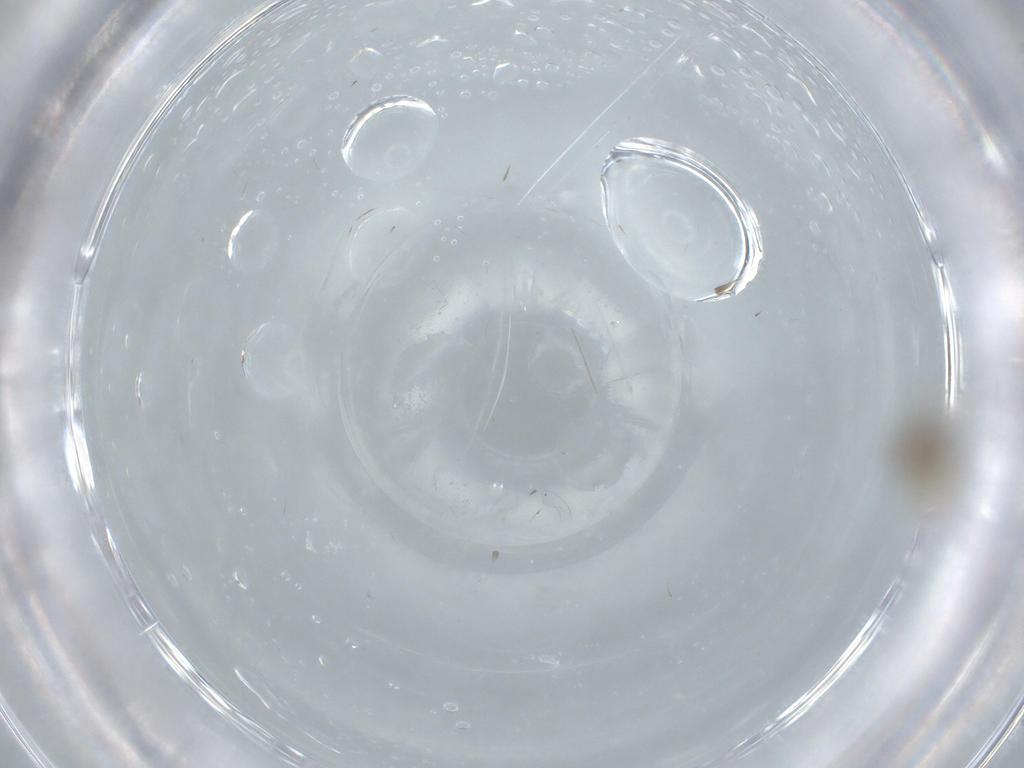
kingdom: Animalia
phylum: Arthropoda
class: Insecta
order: Diptera
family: Cecidomyiidae
